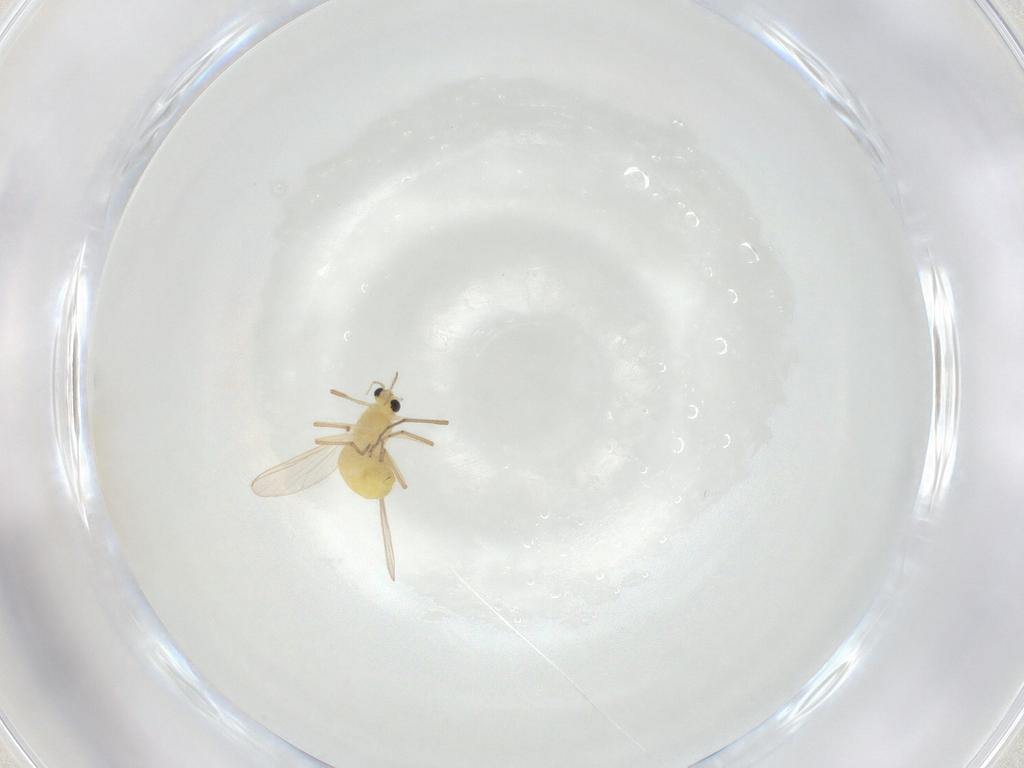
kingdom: Animalia
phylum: Arthropoda
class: Insecta
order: Diptera
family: Chironomidae
